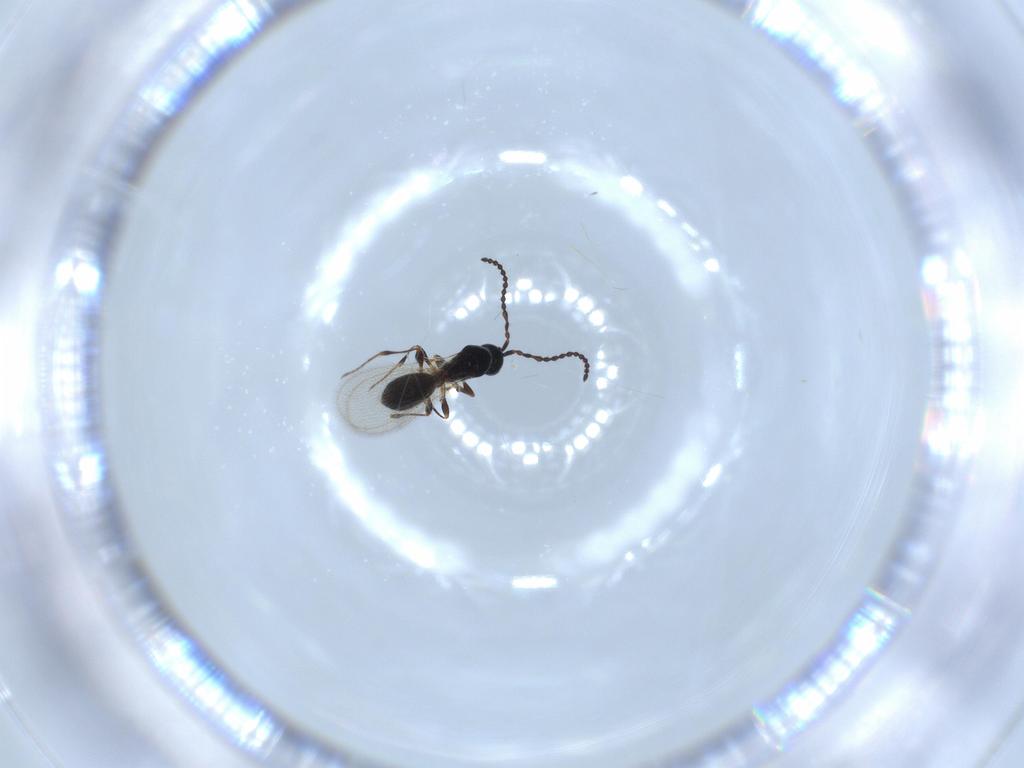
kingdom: Animalia
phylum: Arthropoda
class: Insecta
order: Hymenoptera
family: Diapriidae
